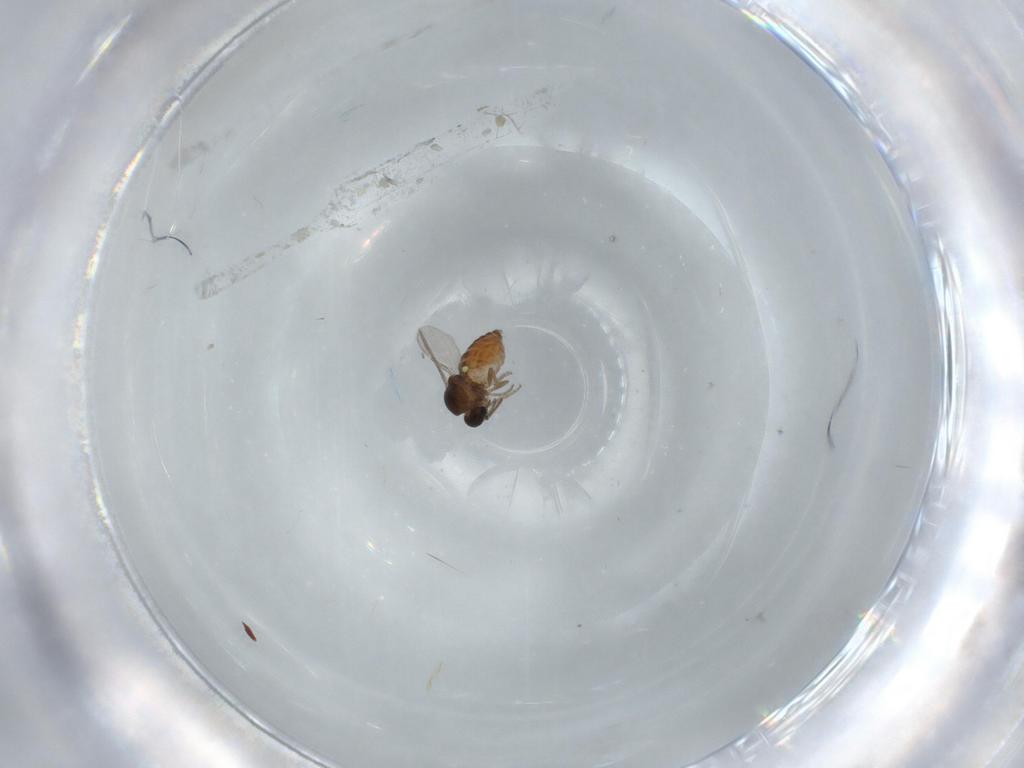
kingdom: Animalia
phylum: Arthropoda
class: Insecta
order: Diptera
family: Ceratopogonidae
